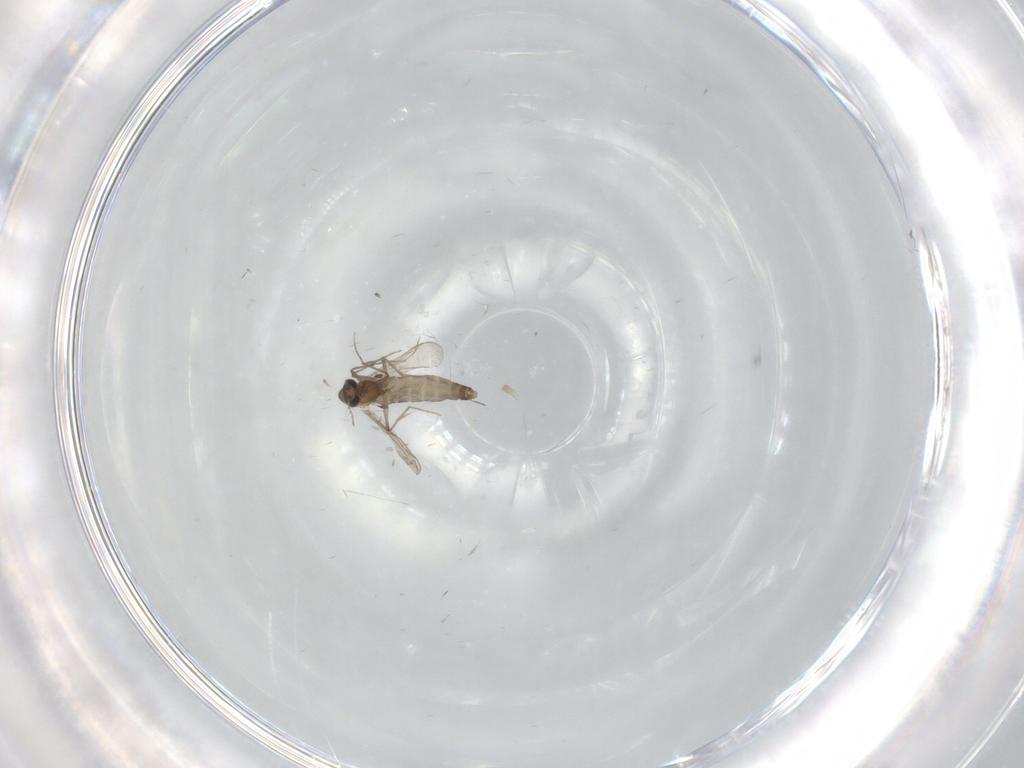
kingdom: Animalia
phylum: Arthropoda
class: Insecta
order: Diptera
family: Chironomidae
